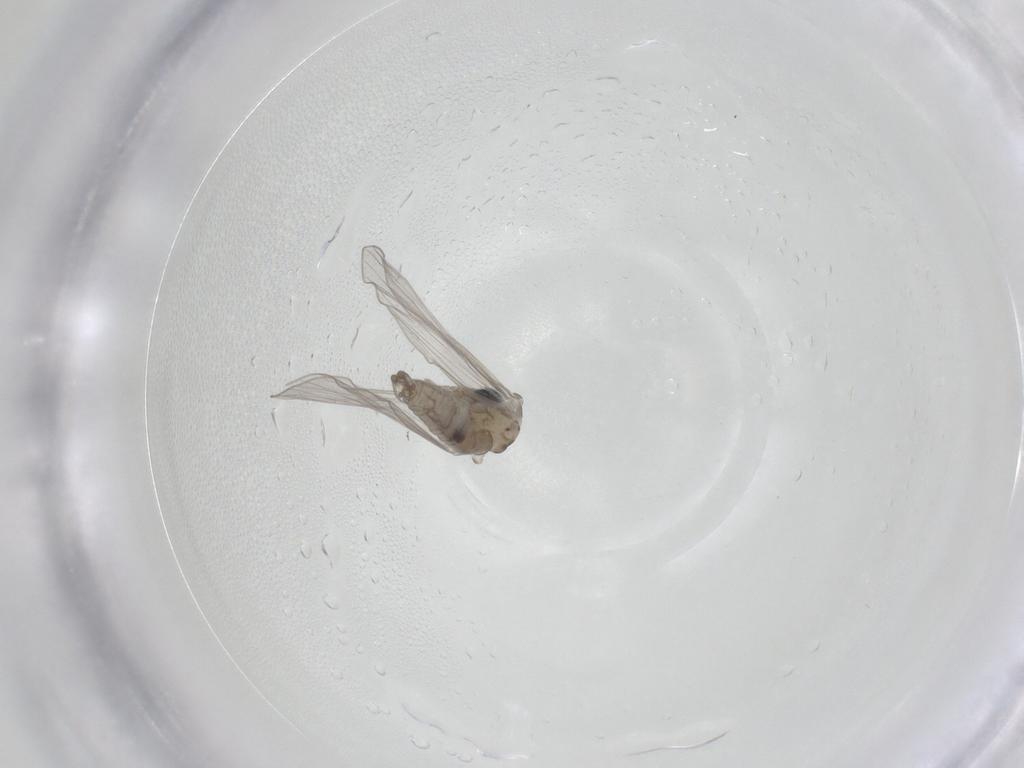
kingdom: Animalia
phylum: Arthropoda
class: Insecta
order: Diptera
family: Psychodidae
